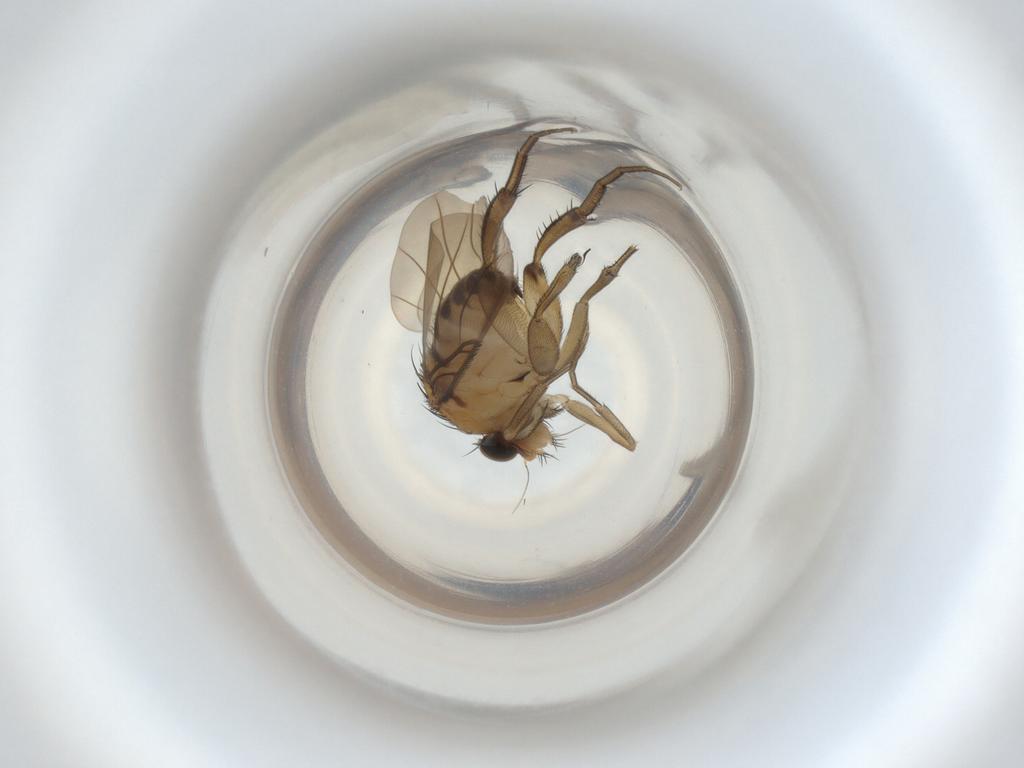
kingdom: Animalia
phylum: Arthropoda
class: Insecta
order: Diptera
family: Phoridae
